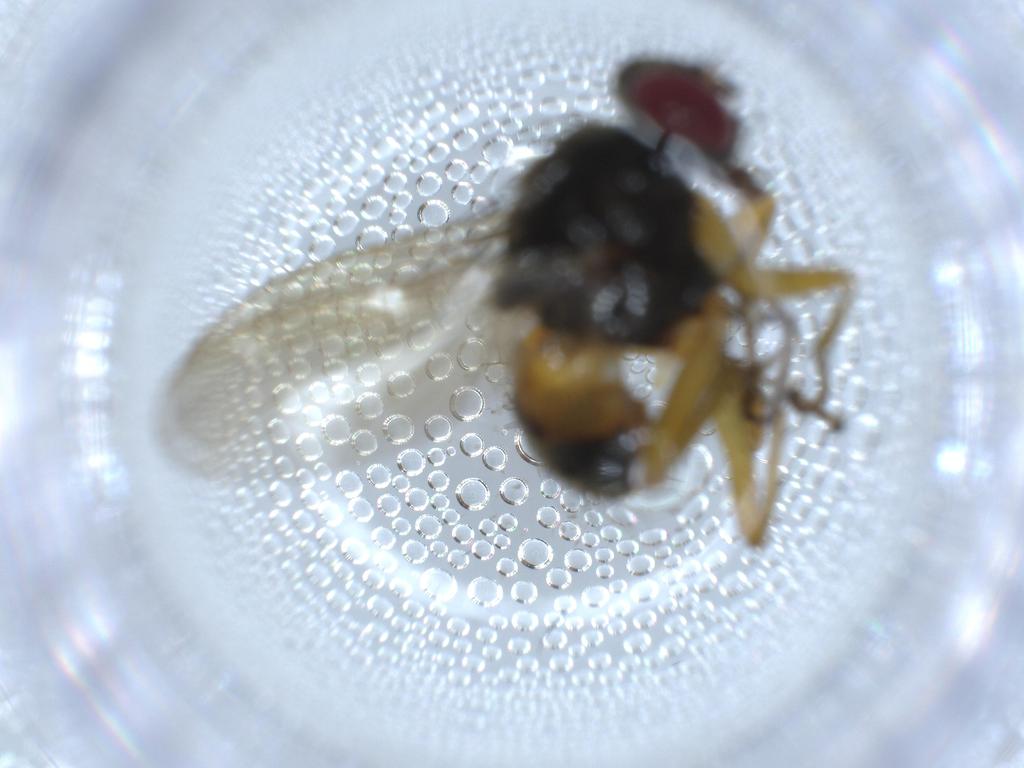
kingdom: Animalia
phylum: Arthropoda
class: Insecta
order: Diptera
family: Muscidae
